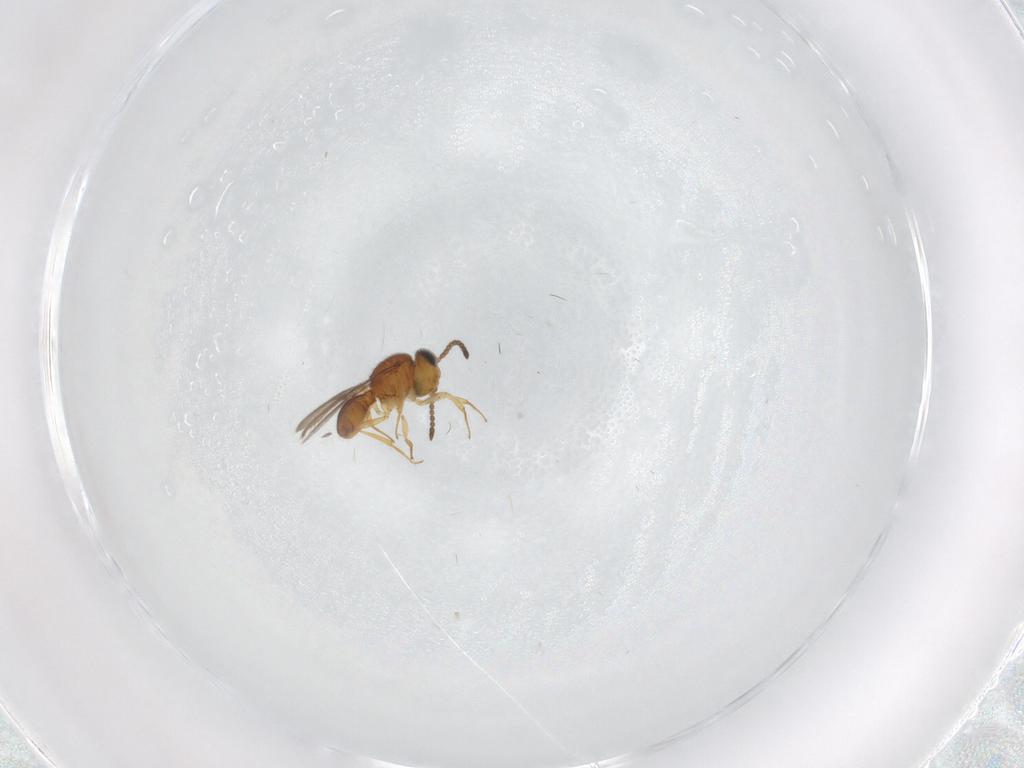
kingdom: Animalia
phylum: Arthropoda
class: Insecta
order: Hymenoptera
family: Scelionidae
